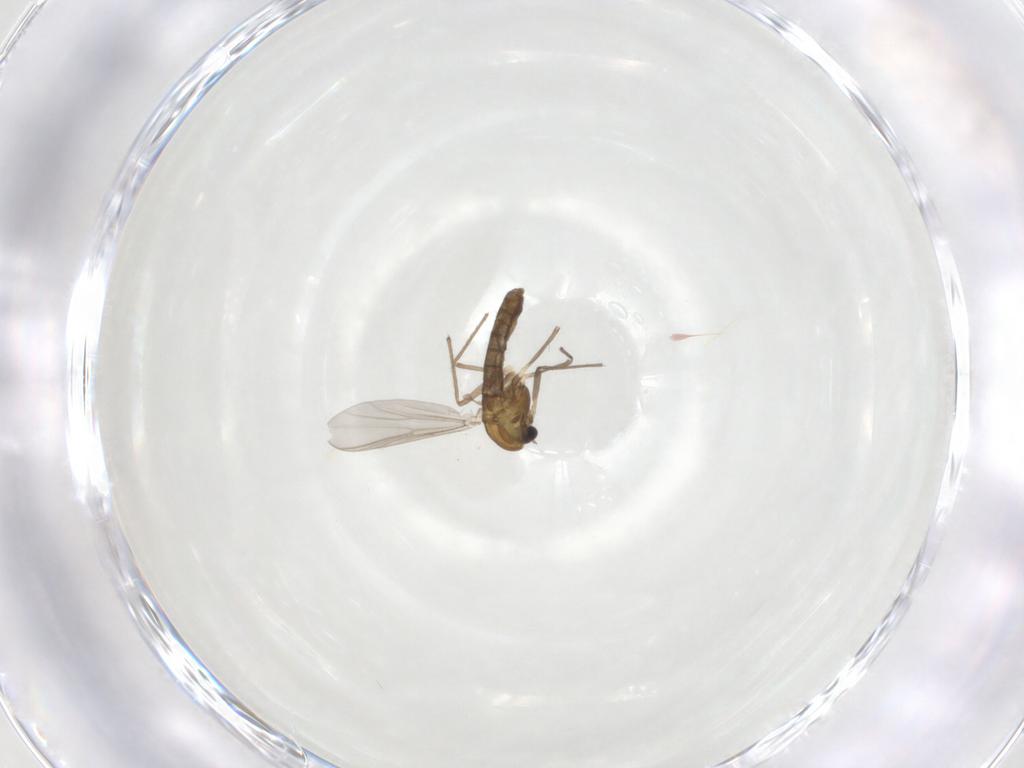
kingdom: Animalia
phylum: Arthropoda
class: Insecta
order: Diptera
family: Chironomidae
